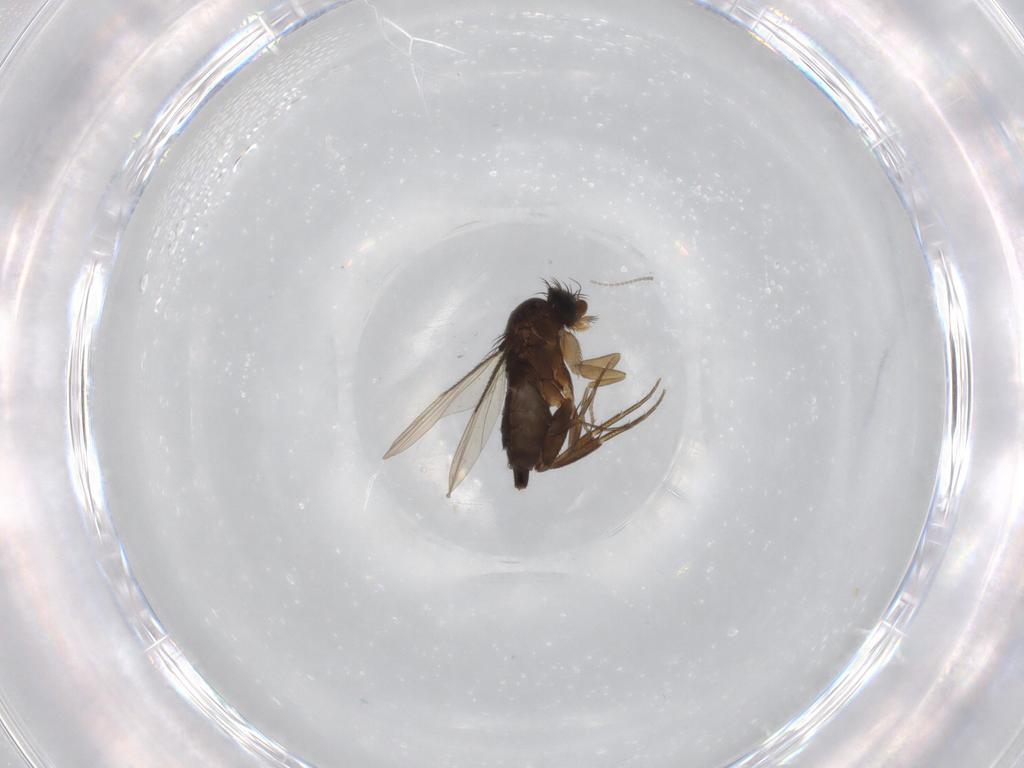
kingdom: Animalia
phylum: Arthropoda
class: Insecta
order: Diptera
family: Phoridae
